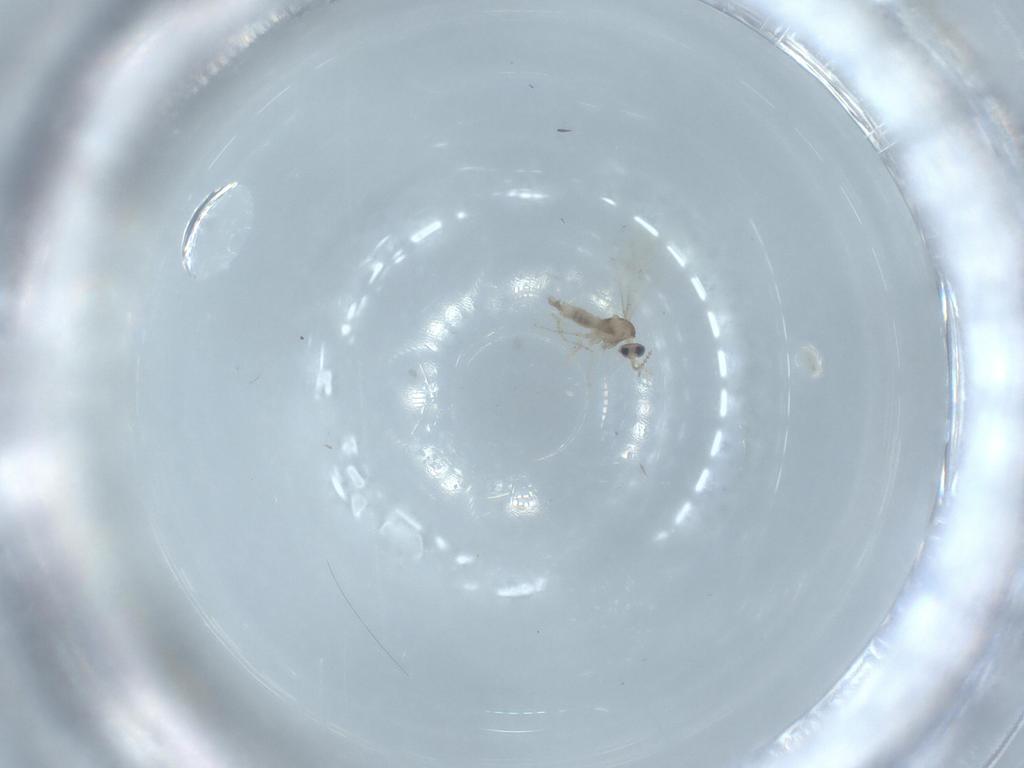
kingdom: Animalia
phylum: Arthropoda
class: Insecta
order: Diptera
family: Cecidomyiidae
